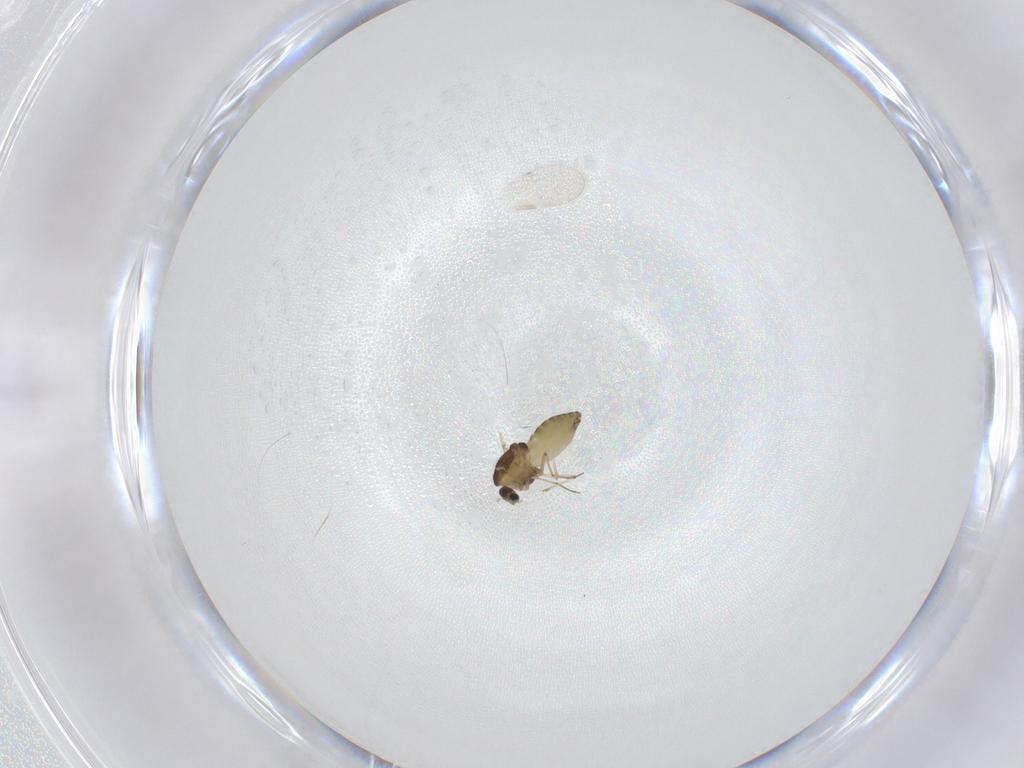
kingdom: Animalia
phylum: Arthropoda
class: Insecta
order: Diptera
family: Chironomidae
